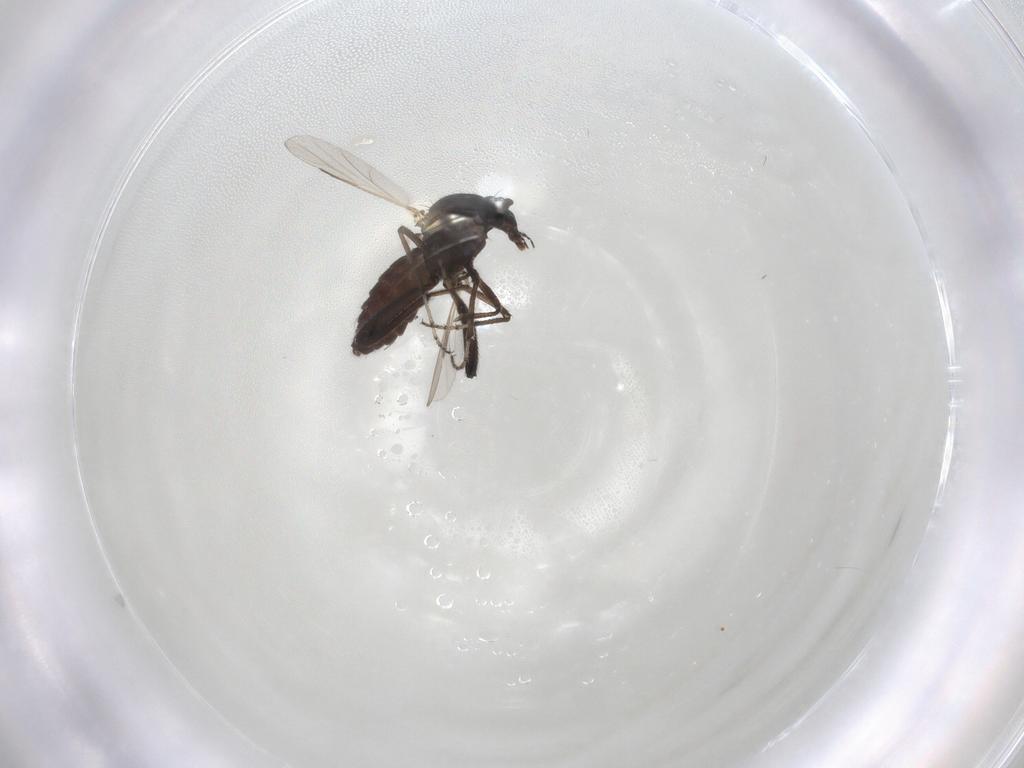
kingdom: Animalia
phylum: Arthropoda
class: Insecta
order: Diptera
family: Ceratopogonidae
